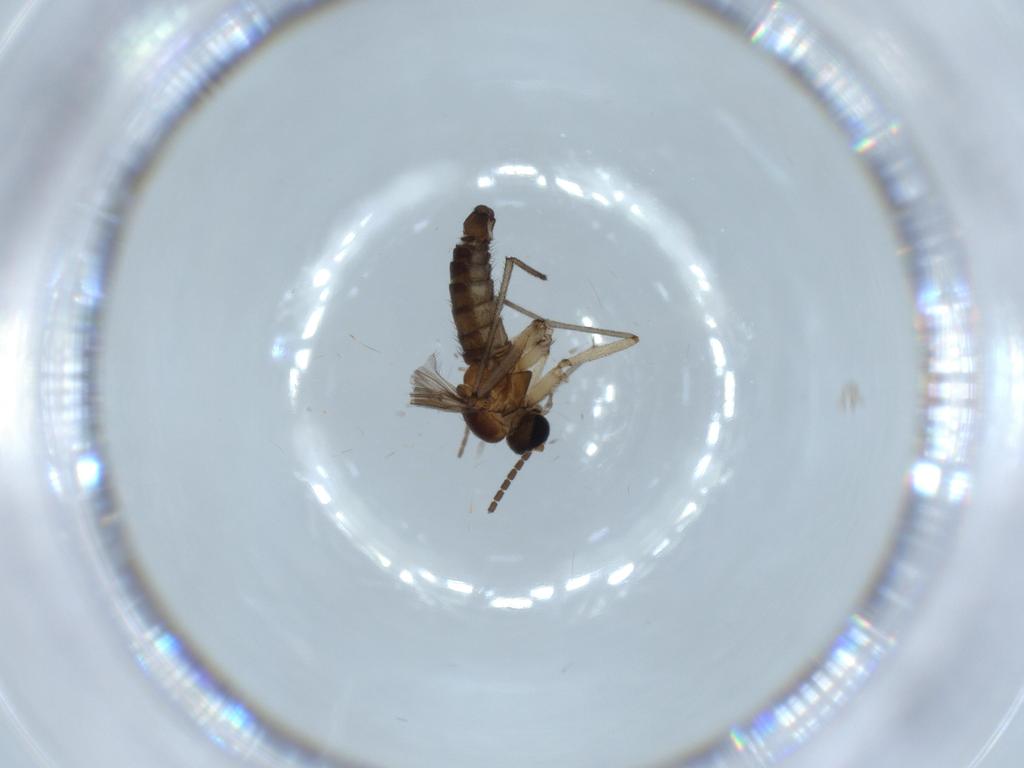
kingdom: Animalia
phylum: Arthropoda
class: Insecta
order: Diptera
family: Sciaridae
